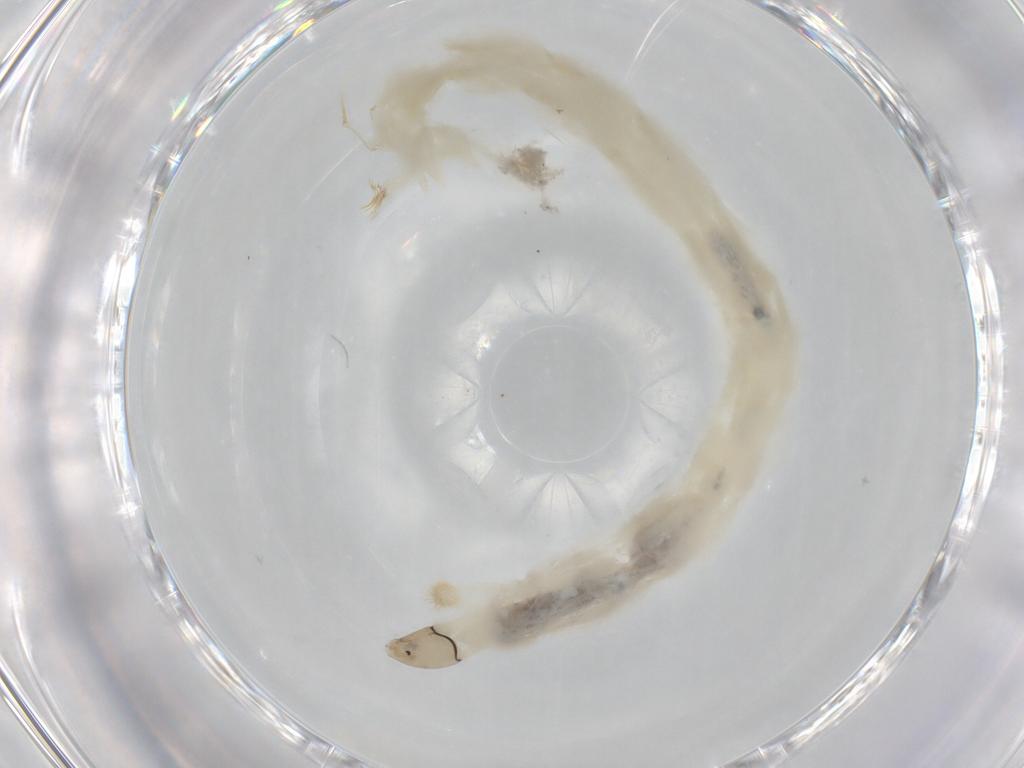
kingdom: Animalia
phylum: Arthropoda
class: Insecta
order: Diptera
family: Chironomidae
